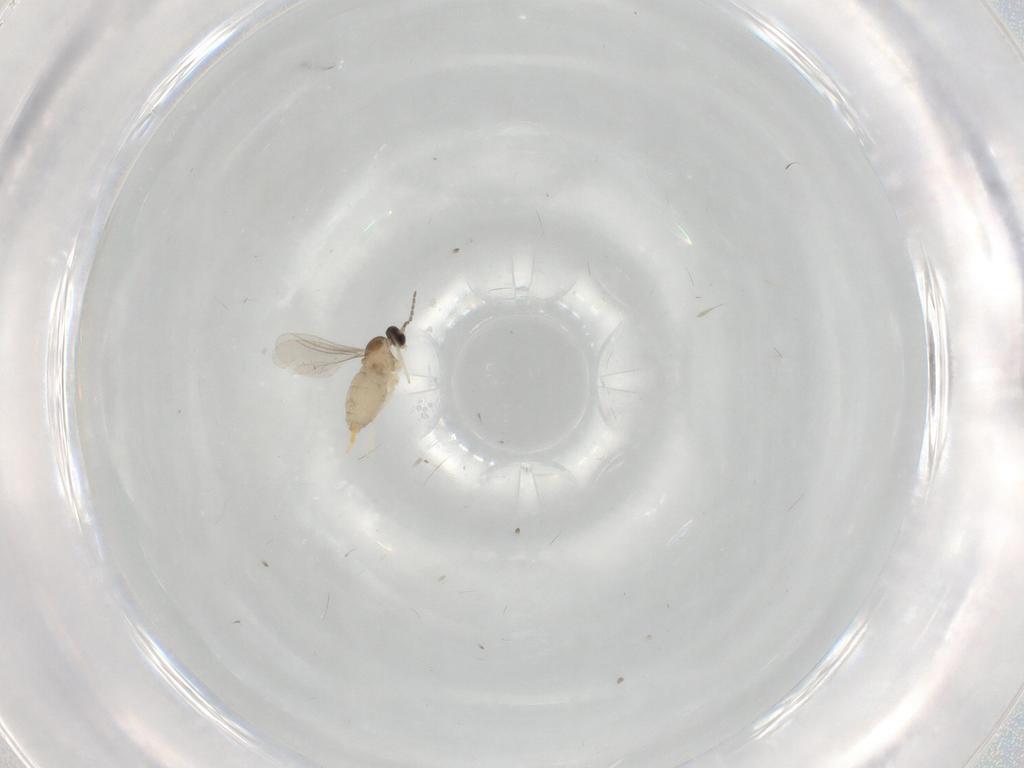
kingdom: Animalia
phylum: Arthropoda
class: Insecta
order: Diptera
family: Cecidomyiidae
